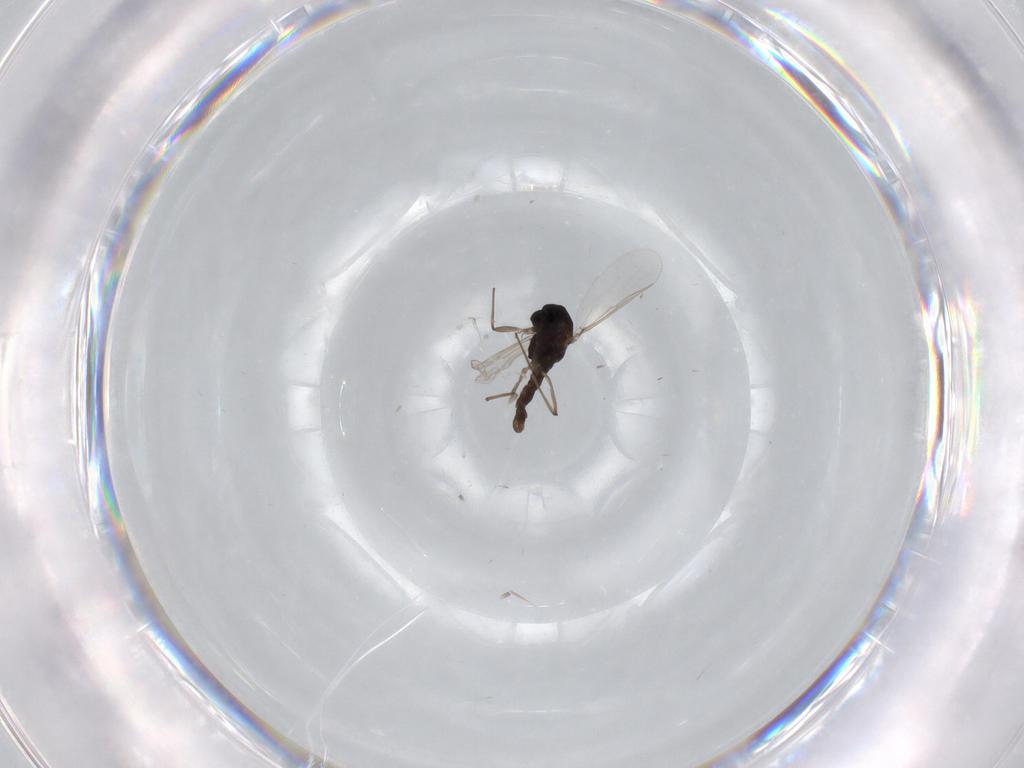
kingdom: Animalia
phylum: Arthropoda
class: Insecta
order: Diptera
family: Chironomidae
